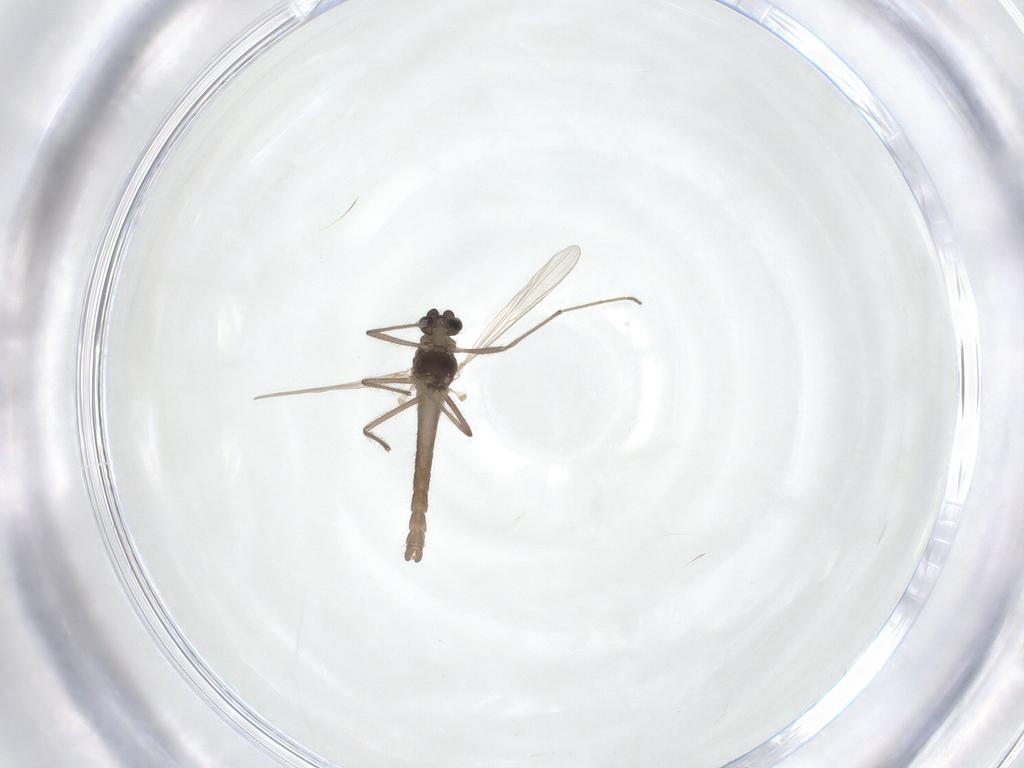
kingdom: Animalia
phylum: Arthropoda
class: Insecta
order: Diptera
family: Chironomidae
